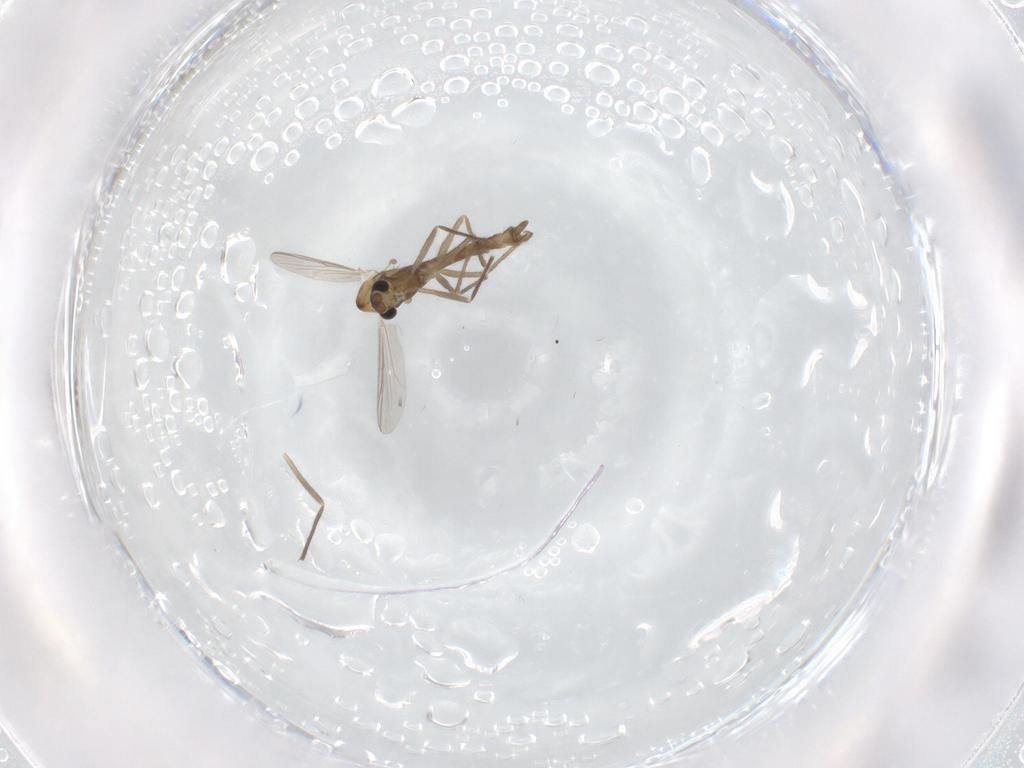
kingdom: Animalia
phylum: Arthropoda
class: Insecta
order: Diptera
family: Chironomidae
